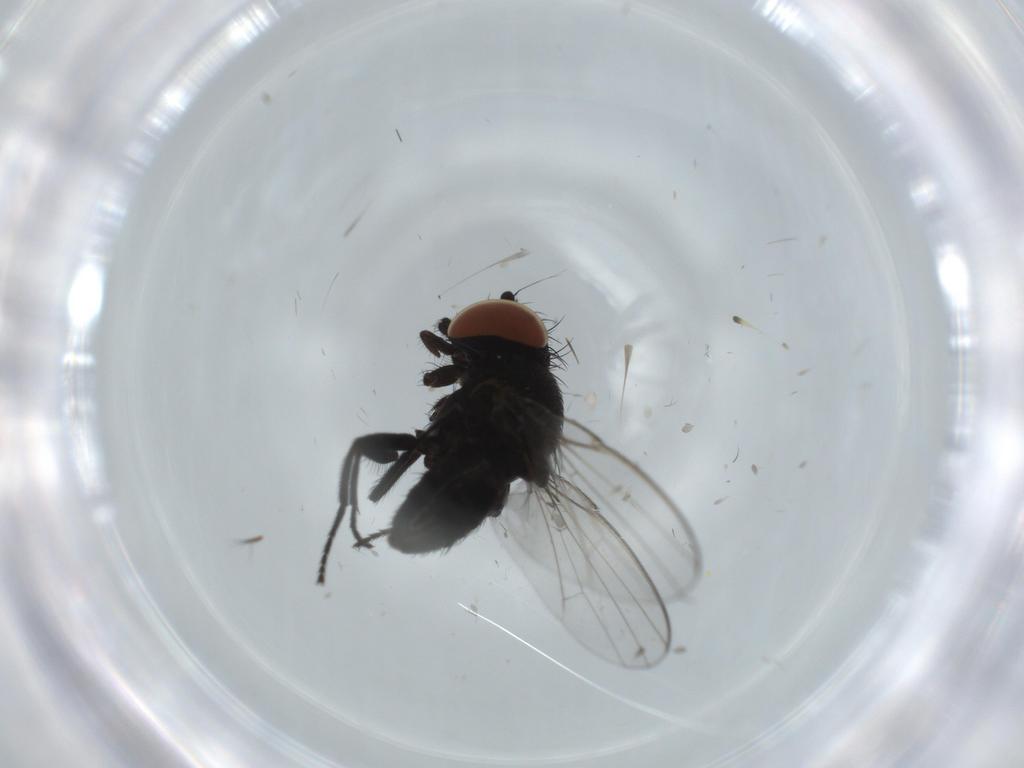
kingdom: Animalia
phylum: Arthropoda
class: Insecta
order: Diptera
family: Milichiidae
